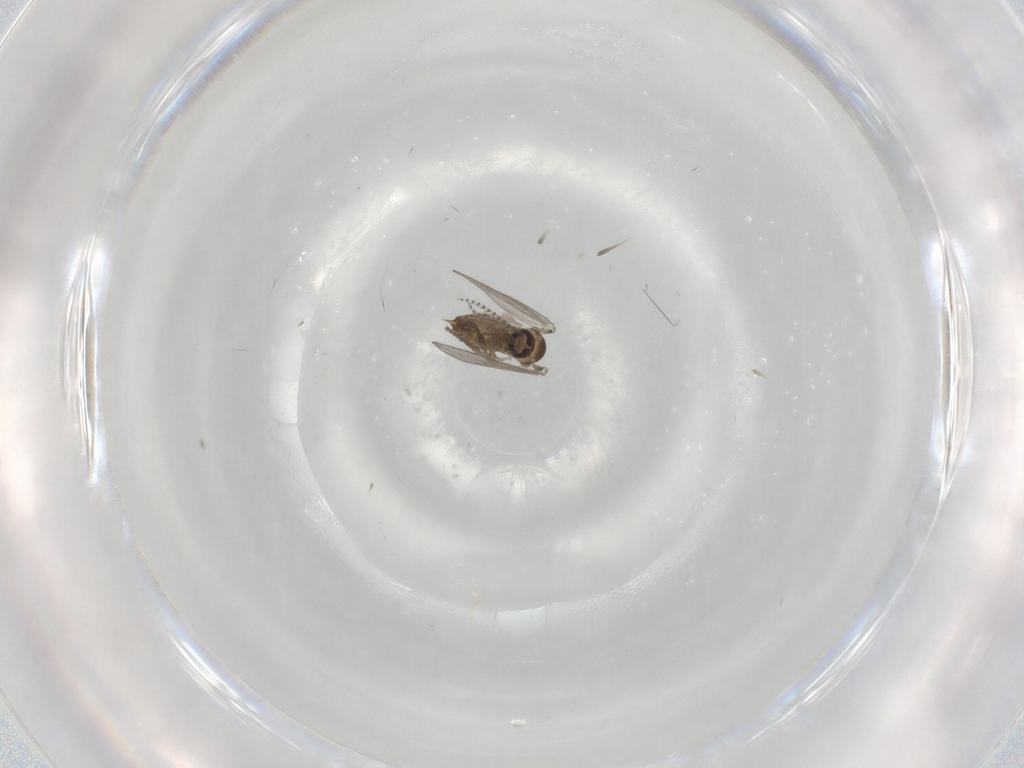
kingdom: Animalia
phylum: Arthropoda
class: Insecta
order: Diptera
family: Psychodidae
